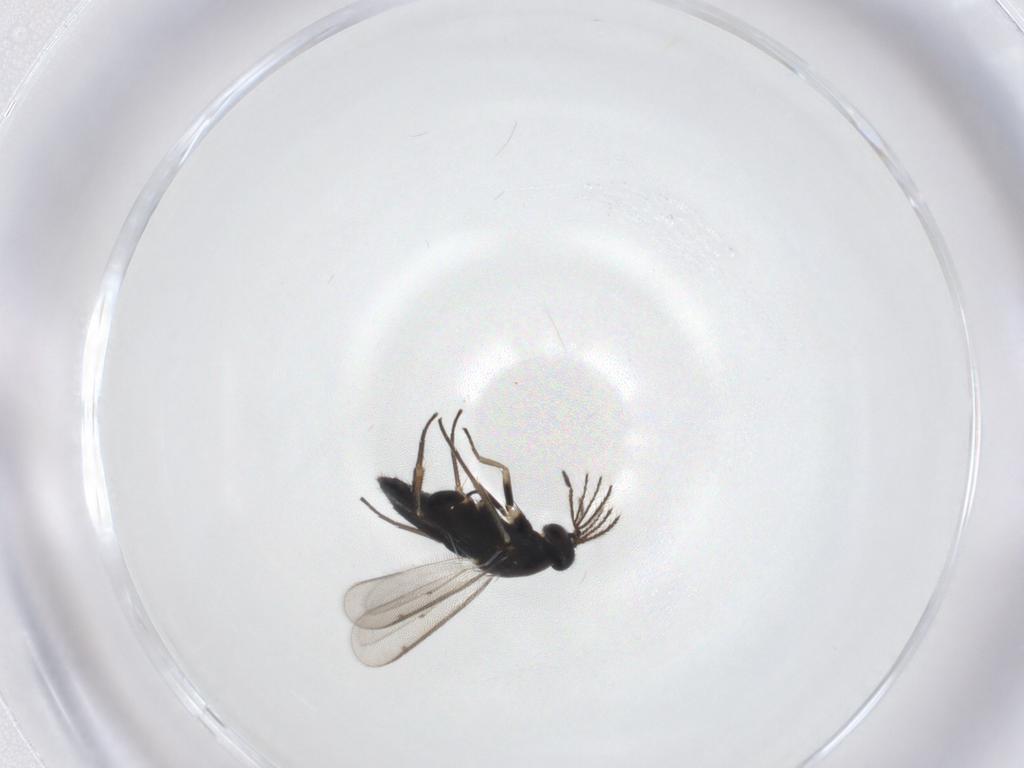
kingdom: Animalia
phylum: Arthropoda
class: Insecta
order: Hymenoptera
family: Eulophidae
